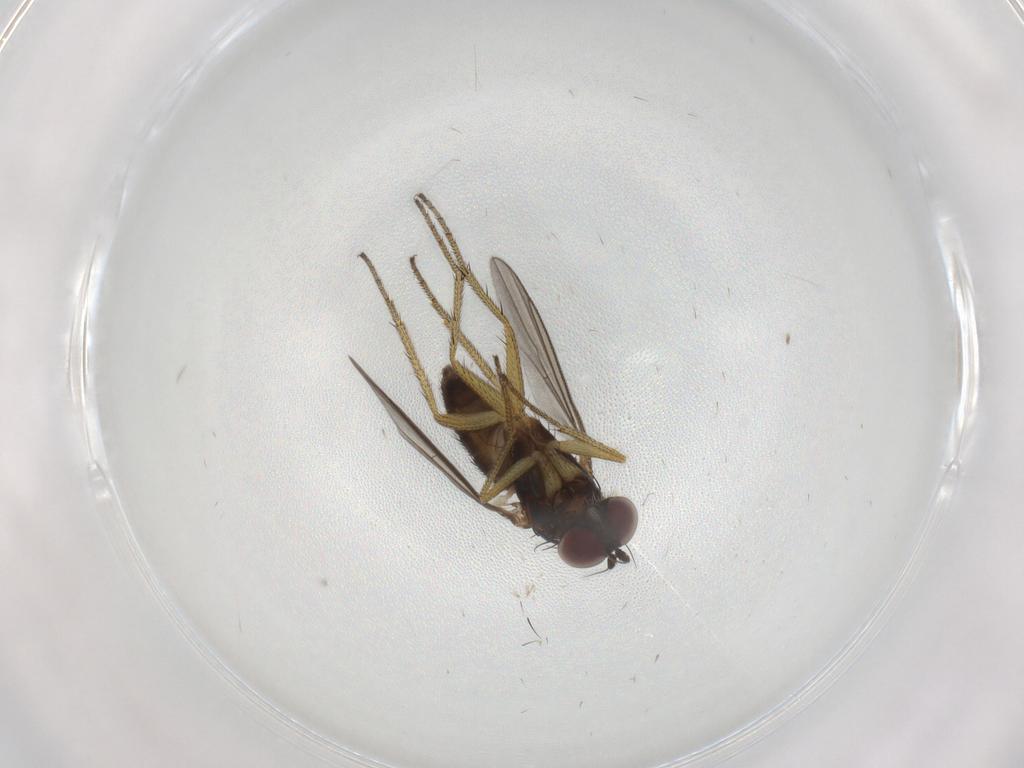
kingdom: Animalia
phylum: Arthropoda
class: Insecta
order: Diptera
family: Dolichopodidae
